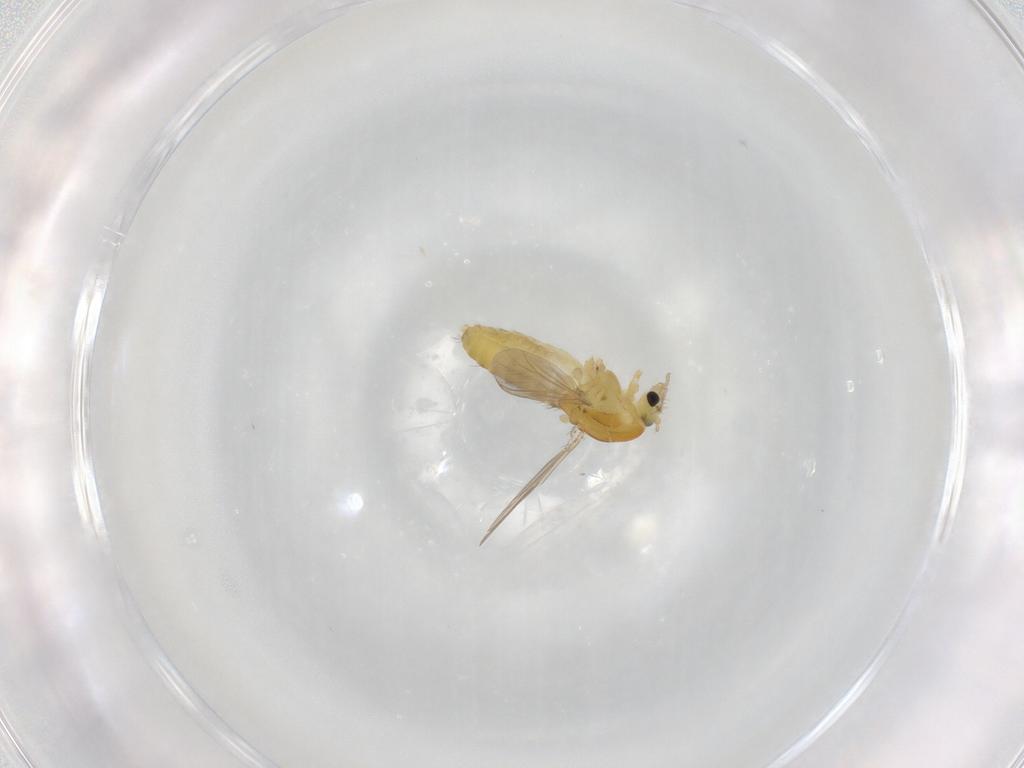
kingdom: Animalia
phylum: Arthropoda
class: Insecta
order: Diptera
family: Chironomidae
